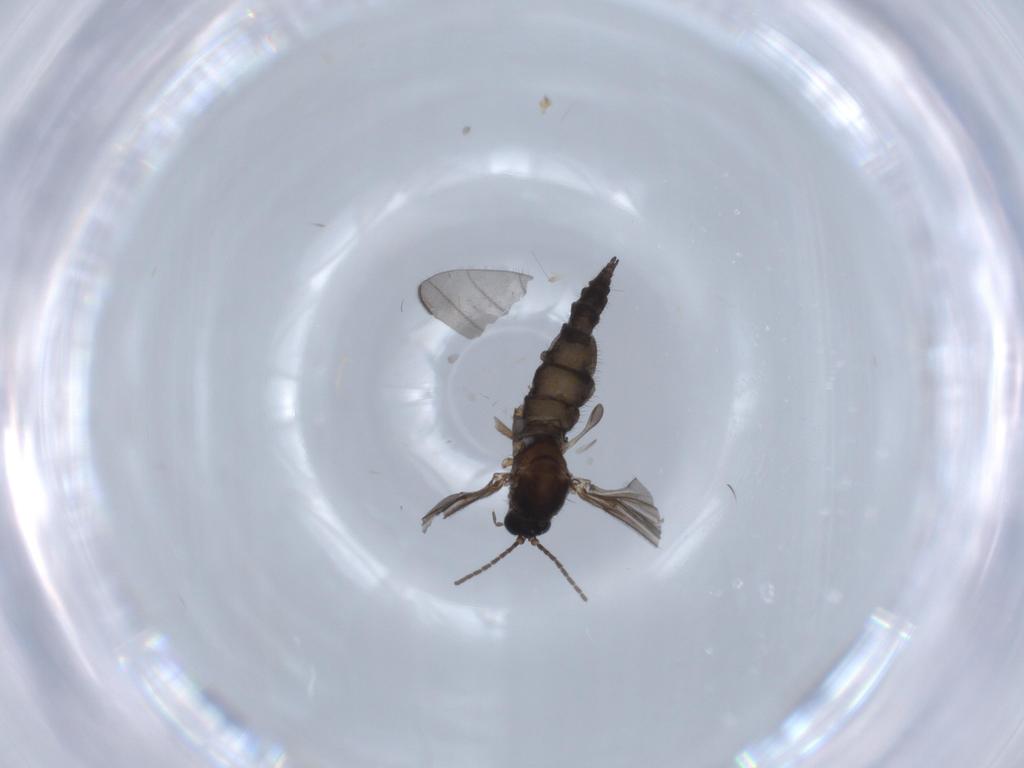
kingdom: Animalia
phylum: Arthropoda
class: Insecta
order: Diptera
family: Sciaridae
